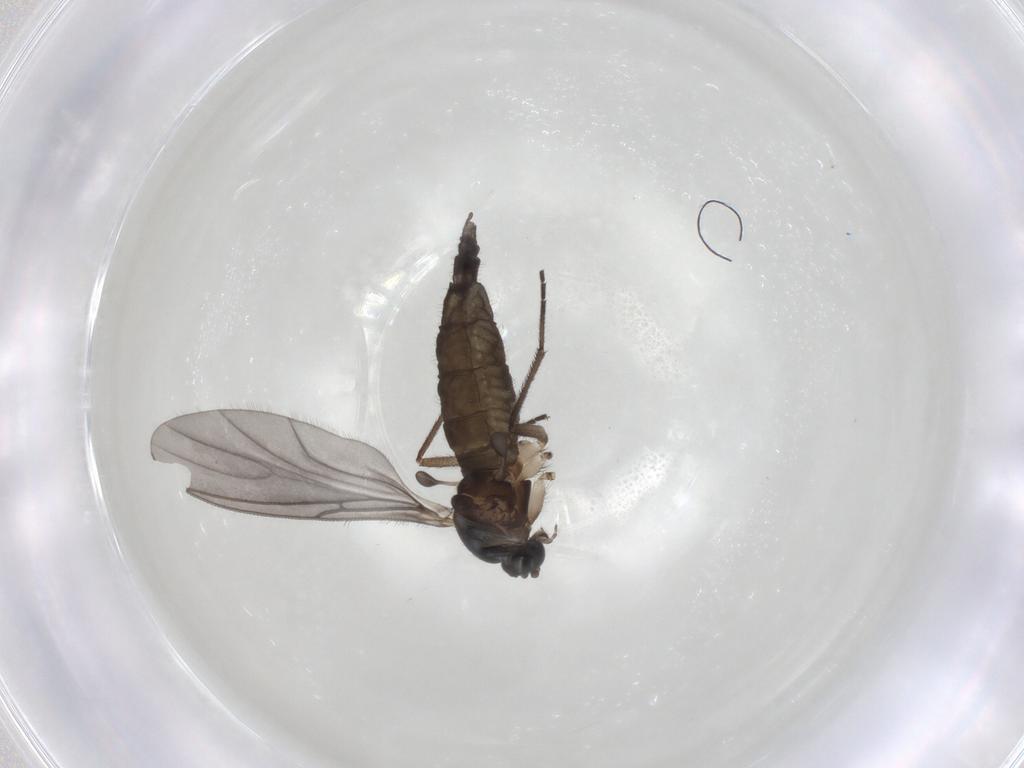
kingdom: Animalia
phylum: Arthropoda
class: Insecta
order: Diptera
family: Sciaridae
